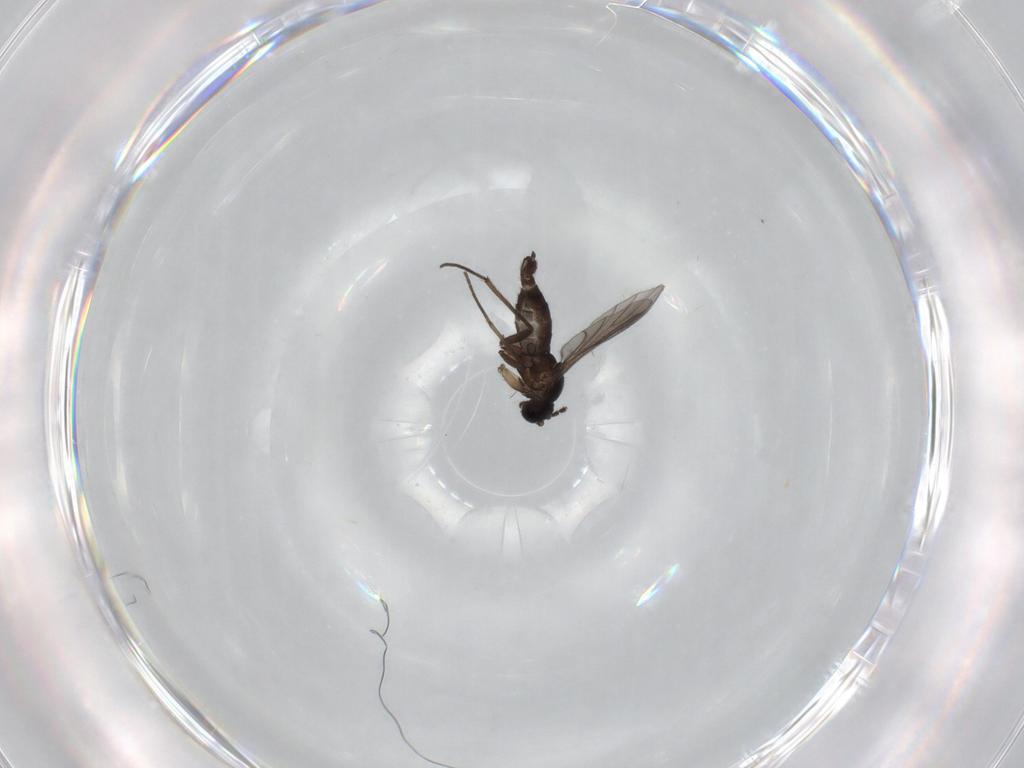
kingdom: Animalia
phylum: Arthropoda
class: Insecta
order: Diptera
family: Sciaridae
